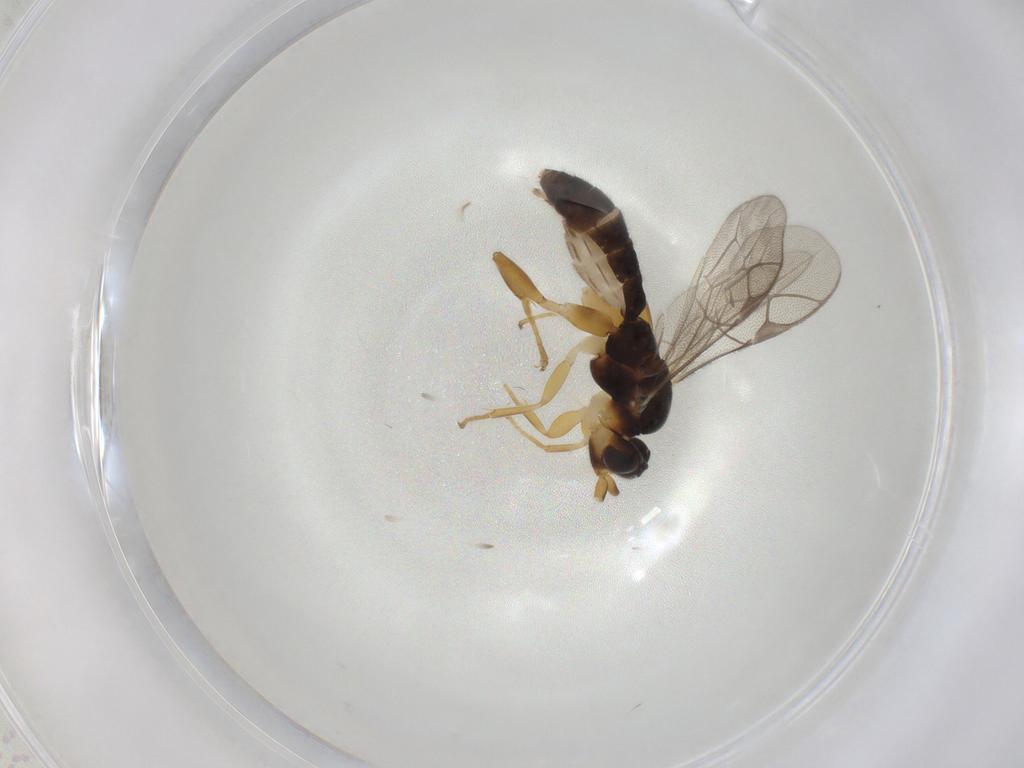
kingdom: Animalia
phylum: Arthropoda
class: Insecta
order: Hymenoptera
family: Ichneumonidae
